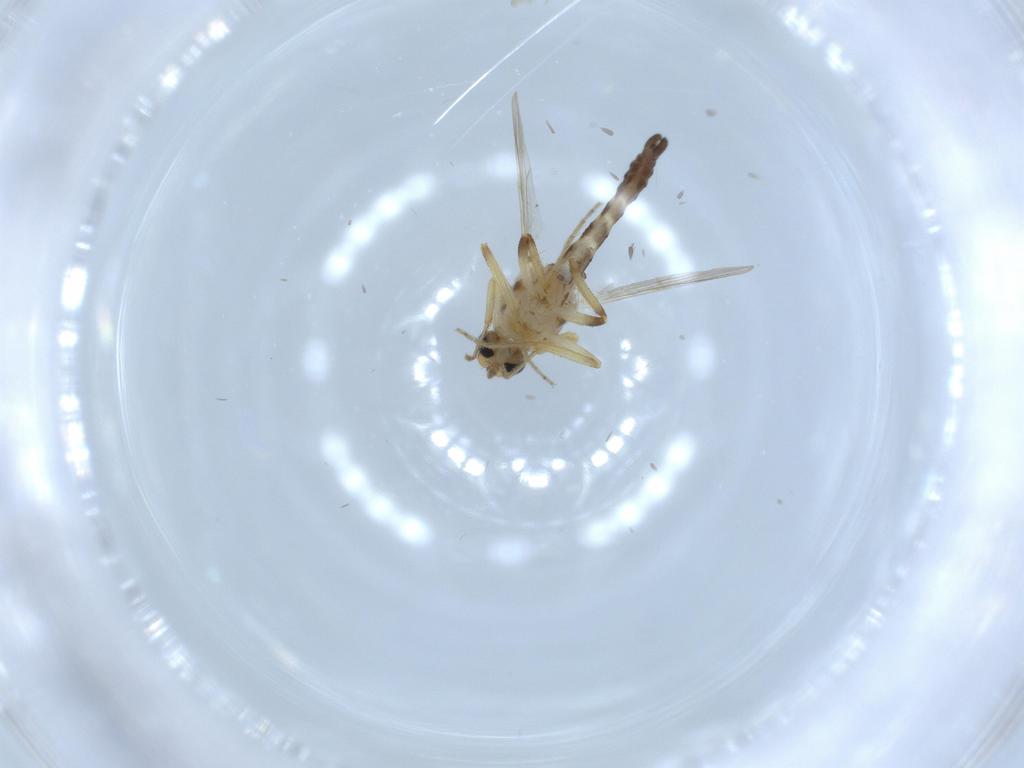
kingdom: Animalia
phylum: Arthropoda
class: Insecta
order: Diptera
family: Ceratopogonidae
